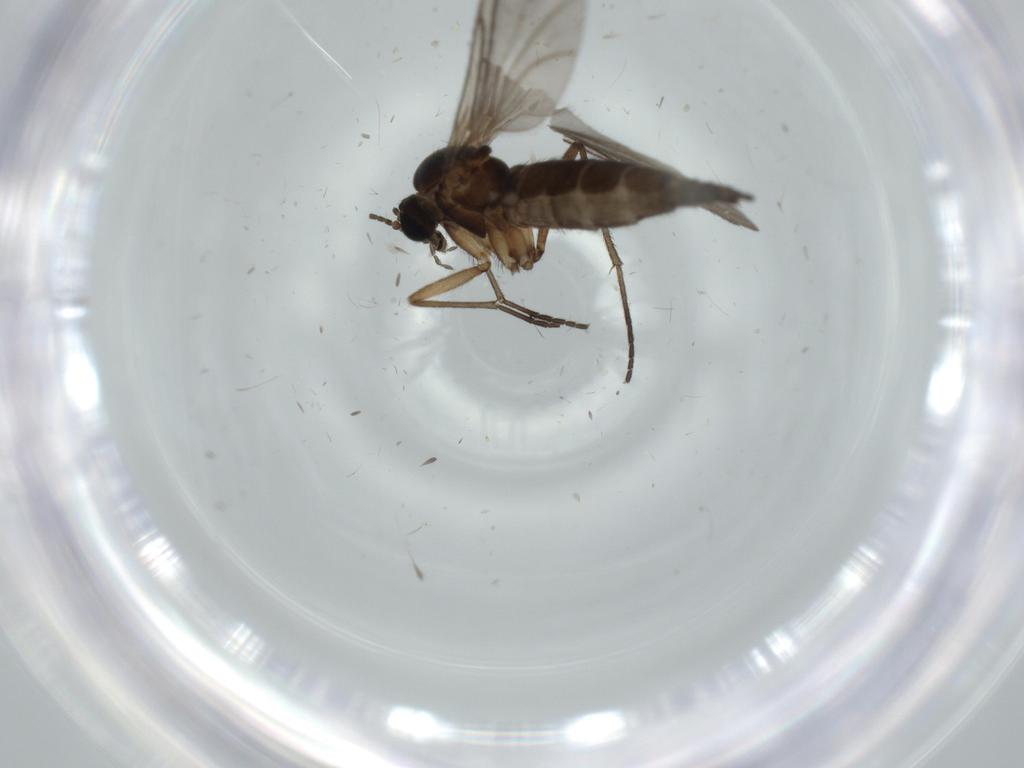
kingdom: Animalia
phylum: Arthropoda
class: Insecta
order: Diptera
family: Sciaridae
